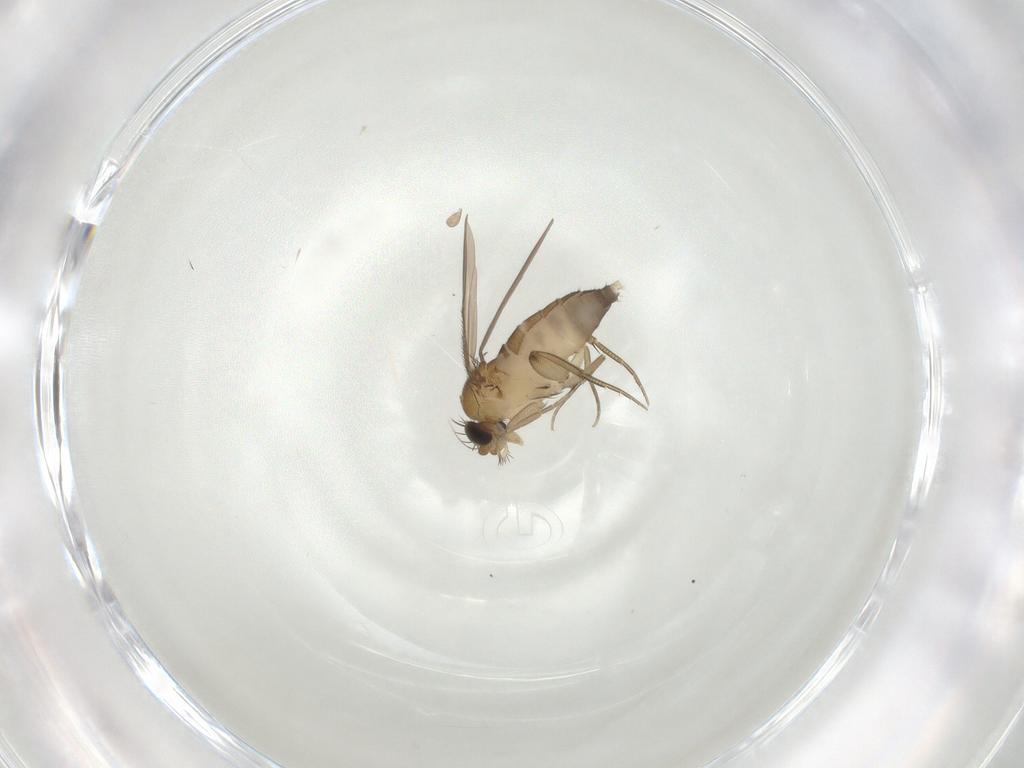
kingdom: Animalia
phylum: Arthropoda
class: Insecta
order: Diptera
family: Phoridae
